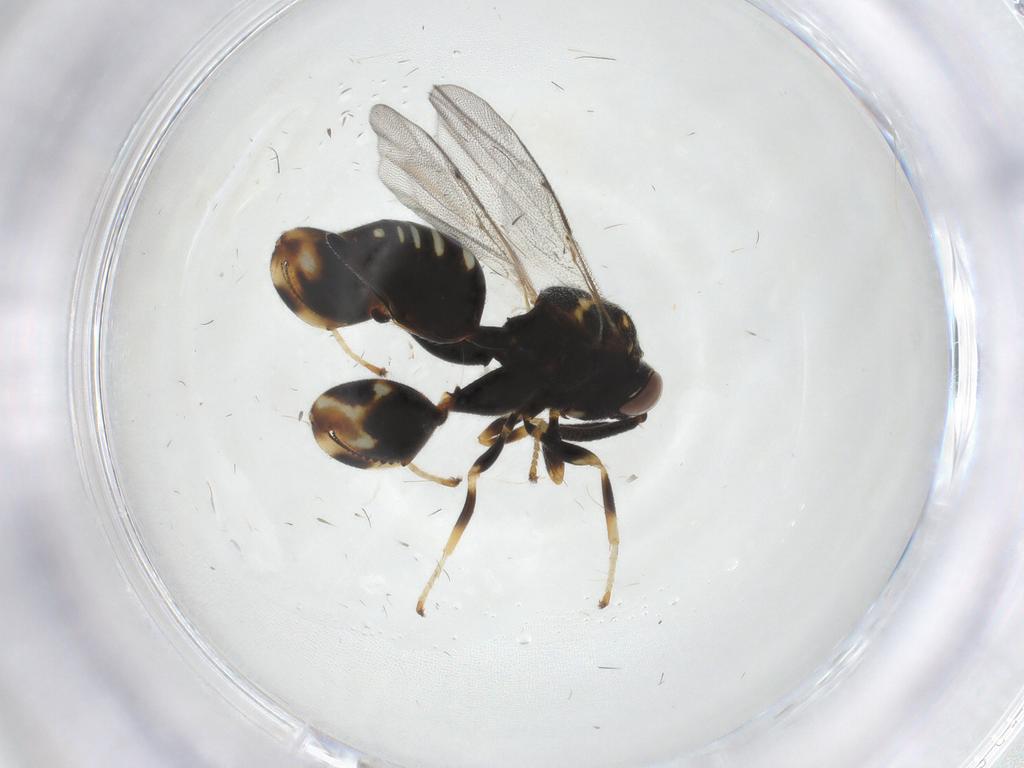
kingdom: Animalia
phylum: Arthropoda
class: Insecta
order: Hymenoptera
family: Chalcididae
